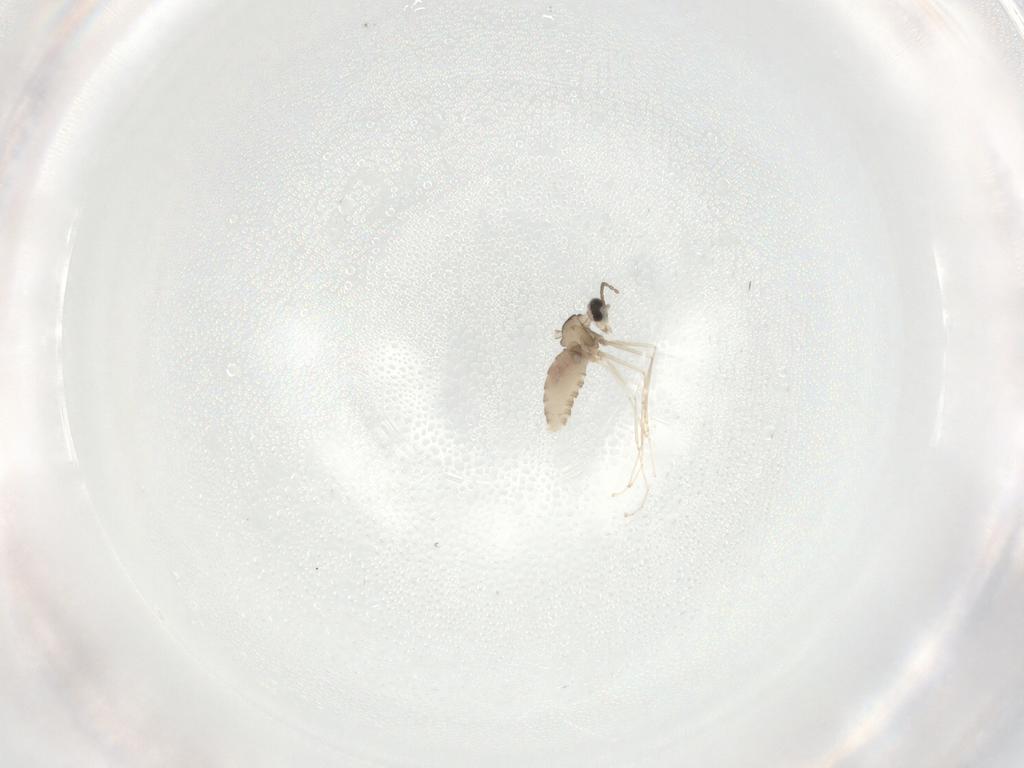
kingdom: Animalia
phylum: Arthropoda
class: Insecta
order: Diptera
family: Cecidomyiidae
